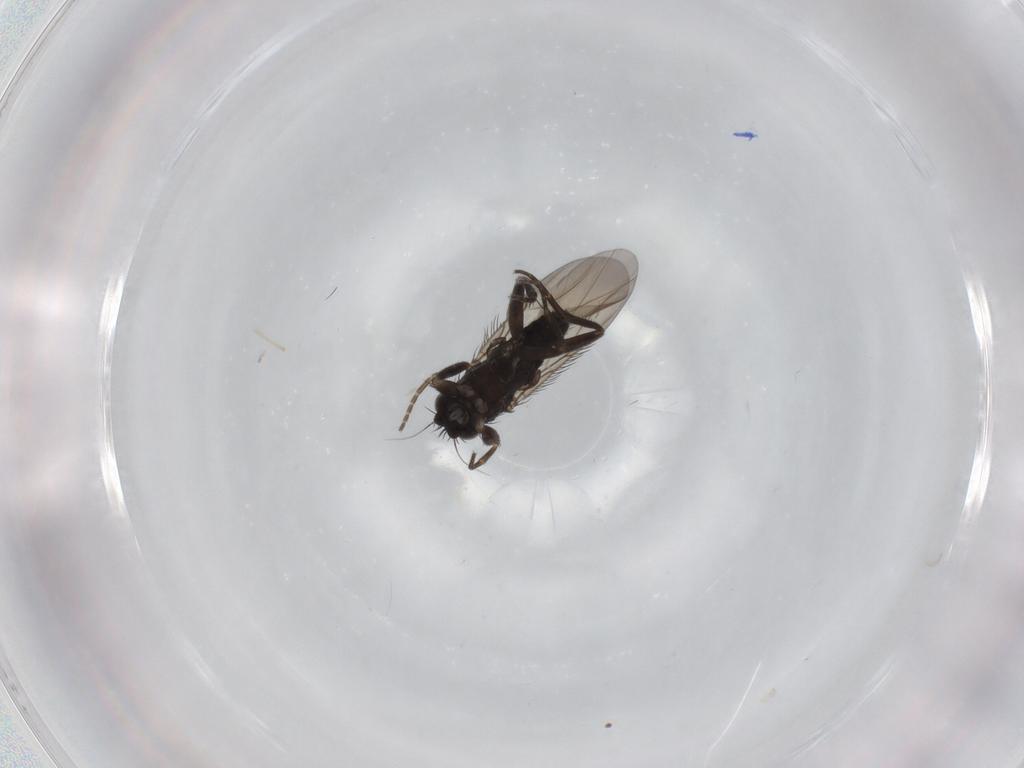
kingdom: Animalia
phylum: Arthropoda
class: Insecta
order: Diptera
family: Phoridae
